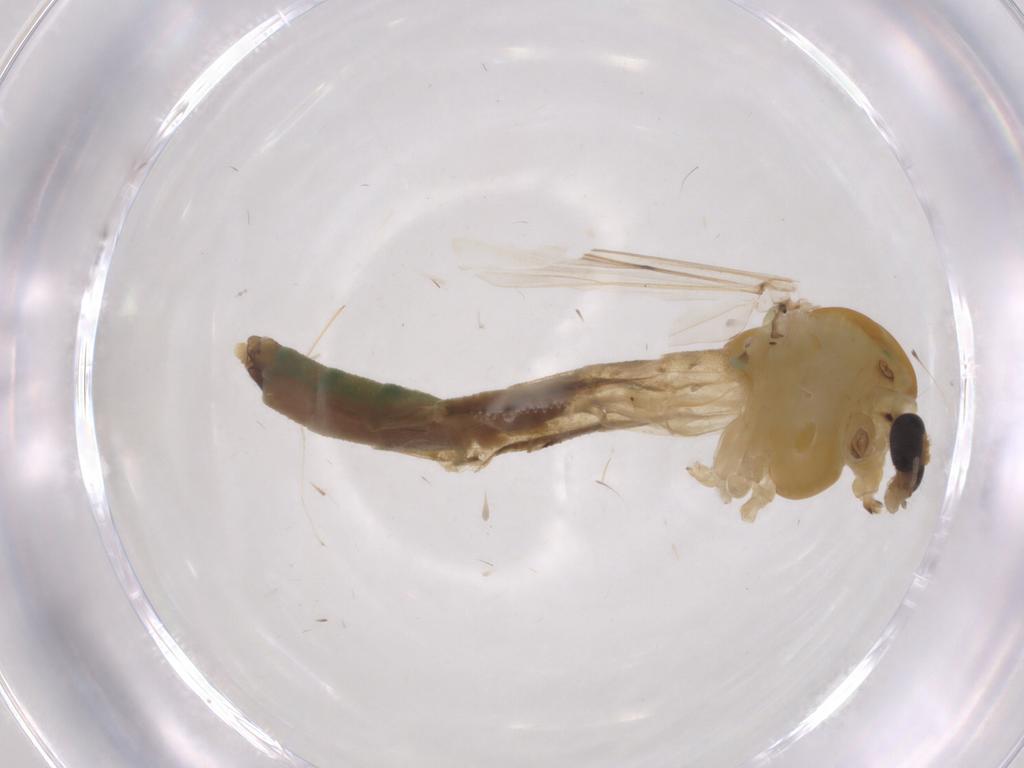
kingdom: Animalia
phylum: Arthropoda
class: Insecta
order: Diptera
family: Chironomidae
